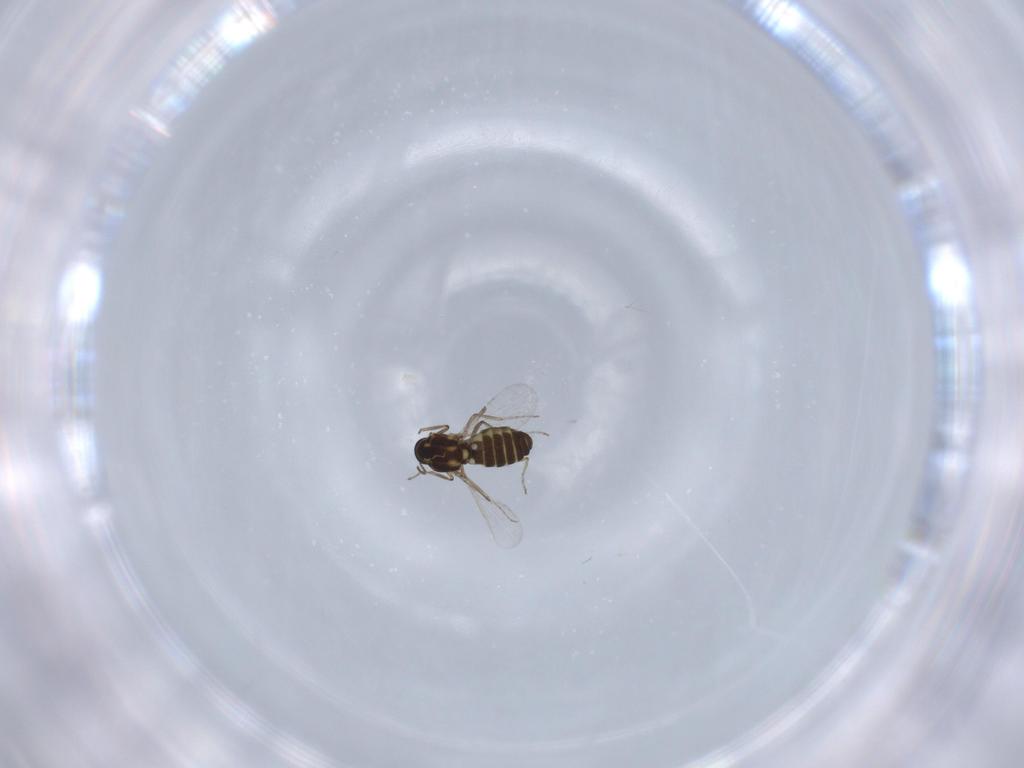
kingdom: Animalia
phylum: Arthropoda
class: Insecta
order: Diptera
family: Ceratopogonidae
